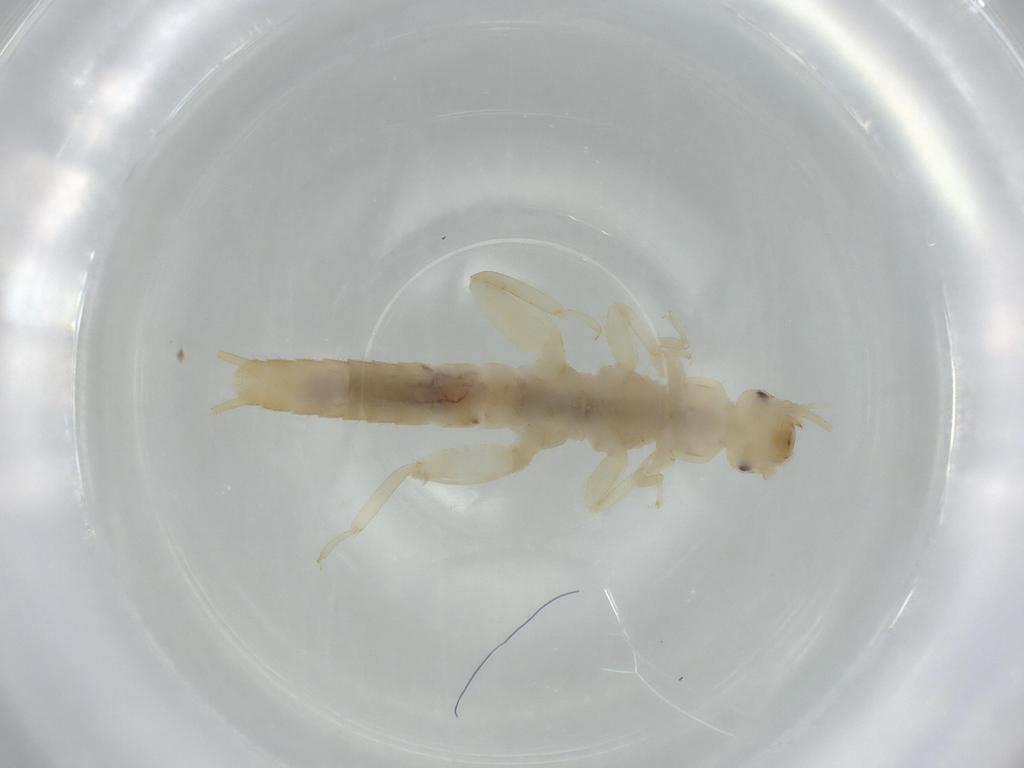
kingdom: Animalia
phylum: Arthropoda
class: Insecta
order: Plecoptera
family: Leuctridae
